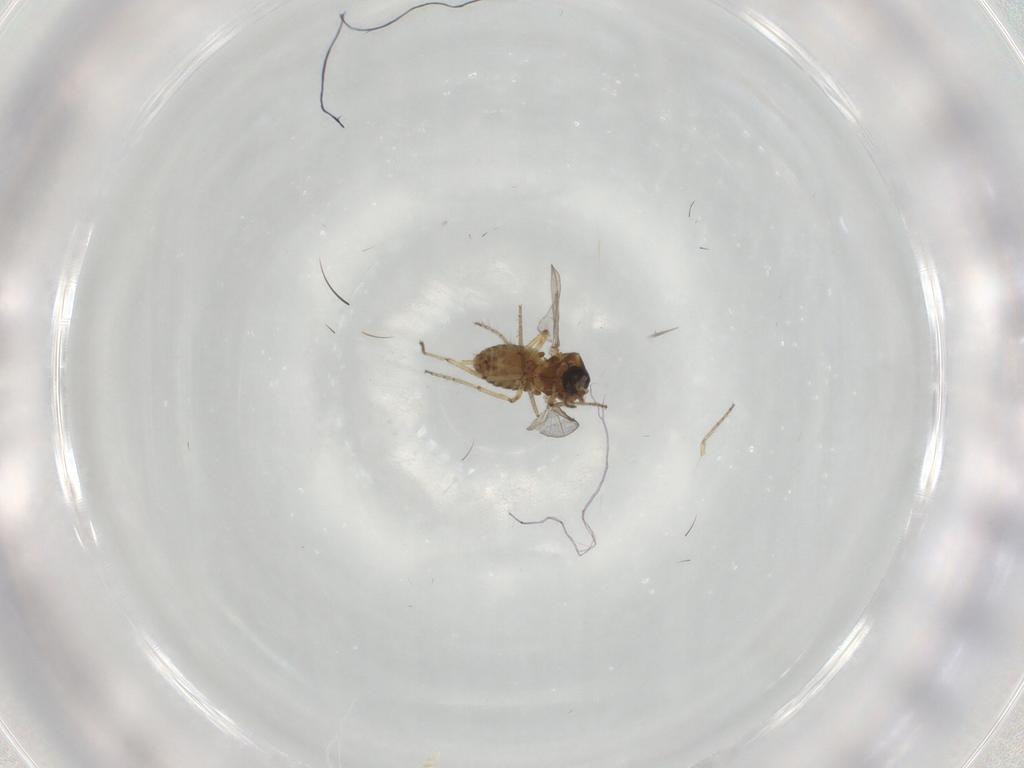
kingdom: Animalia
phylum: Arthropoda
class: Insecta
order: Diptera
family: Ceratopogonidae
